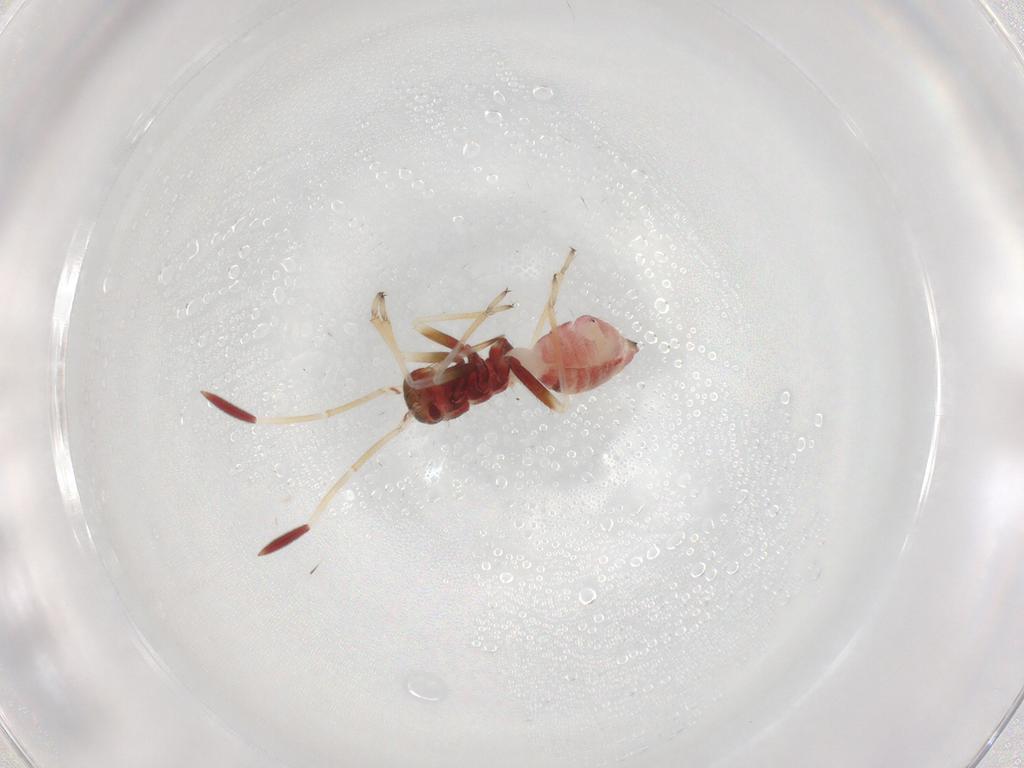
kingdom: Animalia
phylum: Arthropoda
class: Insecta
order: Hemiptera
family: Miridae
